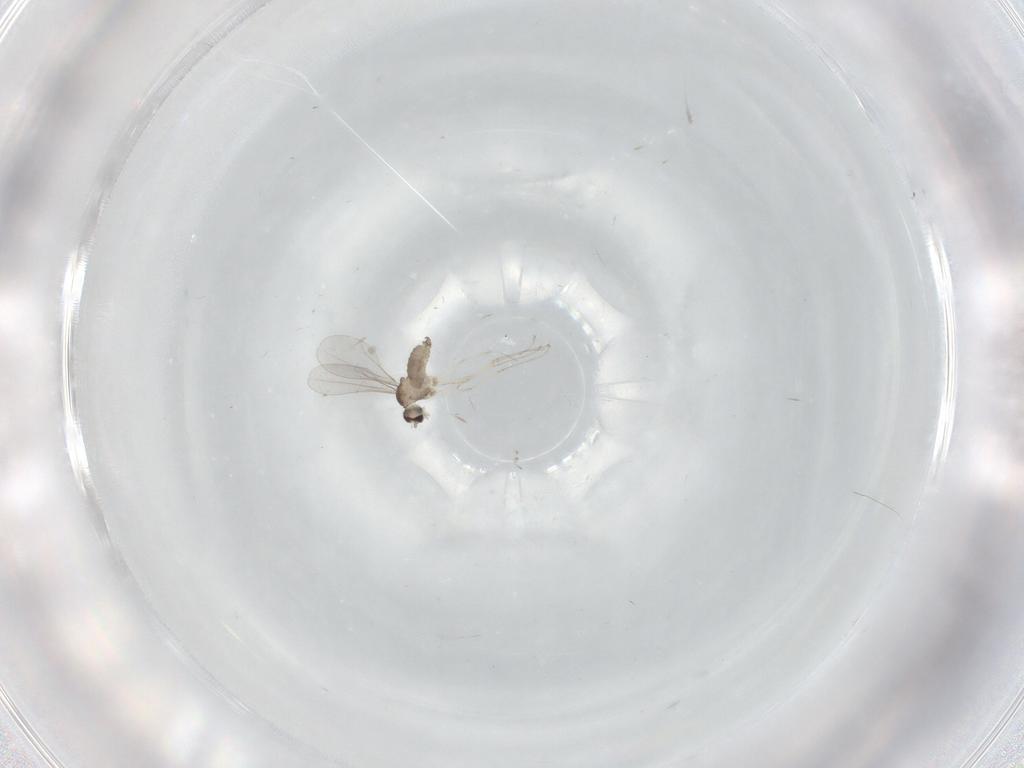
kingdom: Animalia
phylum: Arthropoda
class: Insecta
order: Diptera
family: Cecidomyiidae
